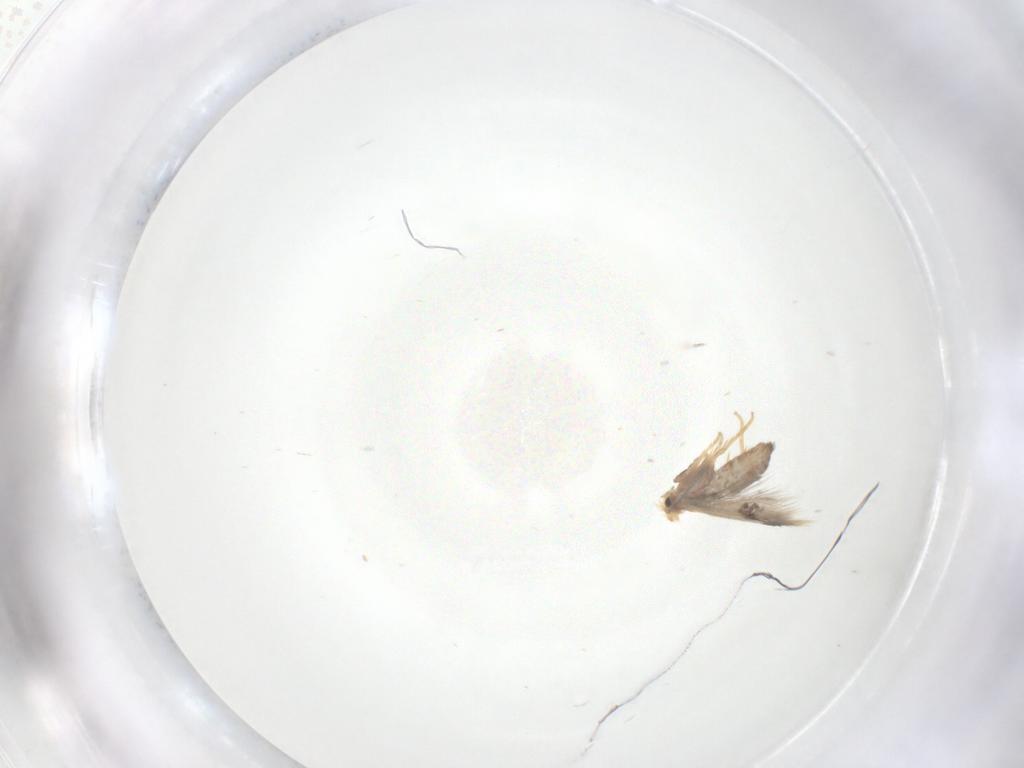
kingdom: Animalia
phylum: Arthropoda
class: Insecta
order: Lepidoptera
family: Nepticulidae
